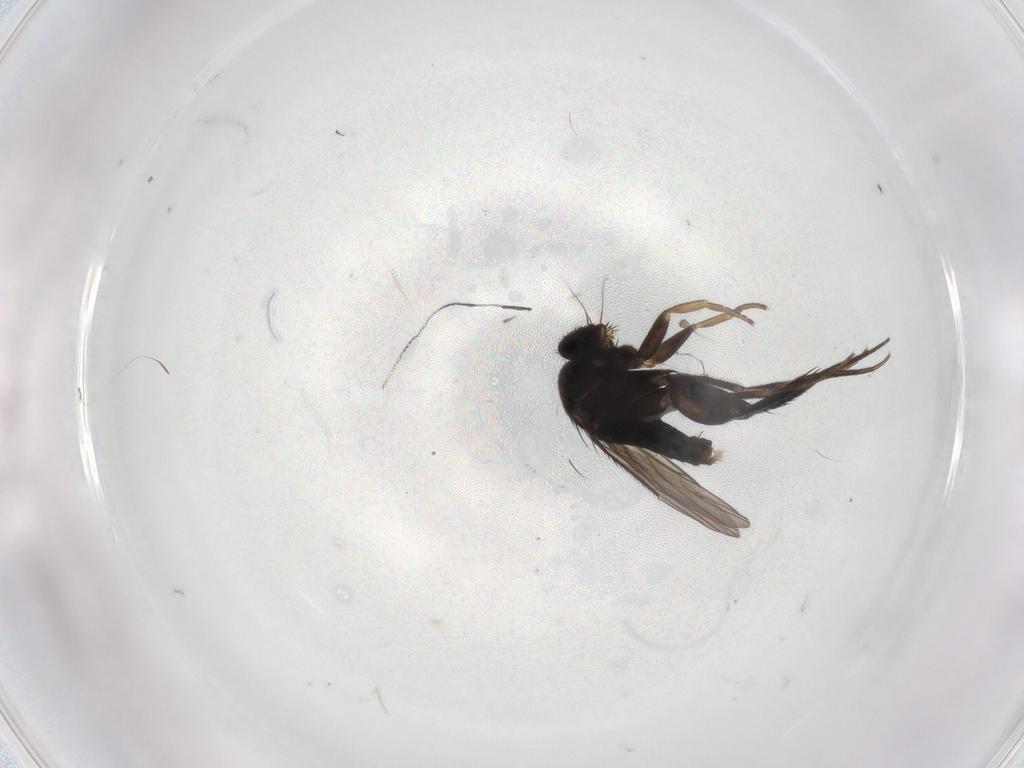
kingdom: Animalia
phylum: Arthropoda
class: Insecta
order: Diptera
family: Phoridae
